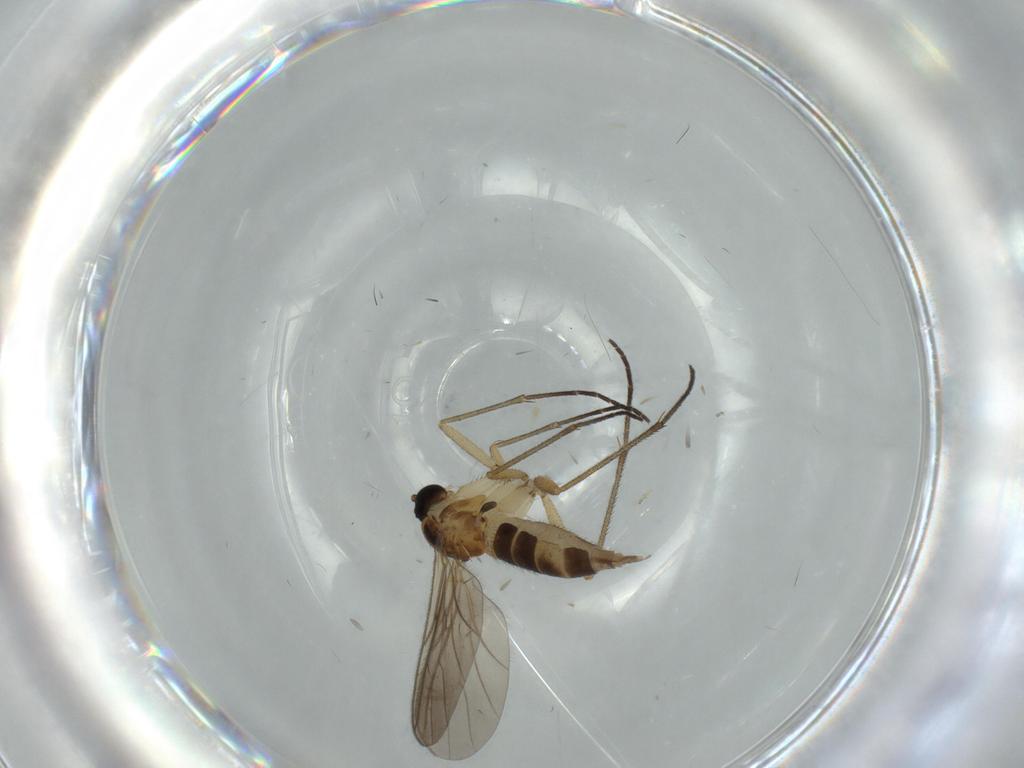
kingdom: Animalia
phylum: Arthropoda
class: Insecta
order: Diptera
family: Sciaridae
